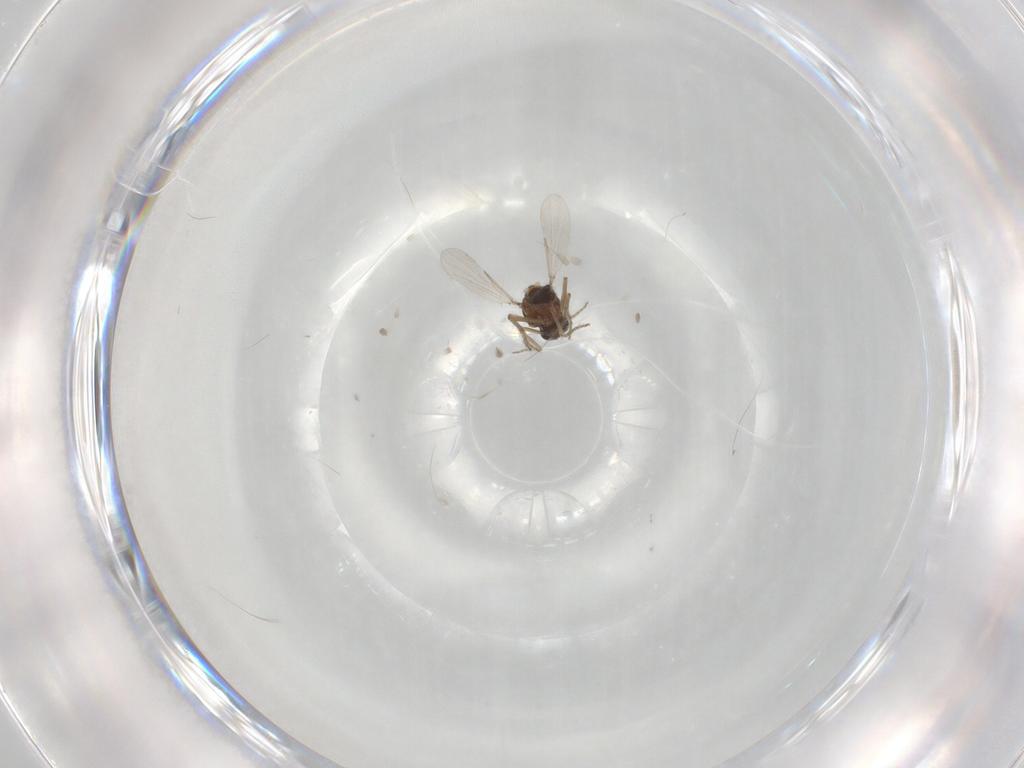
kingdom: Animalia
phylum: Arthropoda
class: Insecta
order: Diptera
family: Ceratopogonidae
